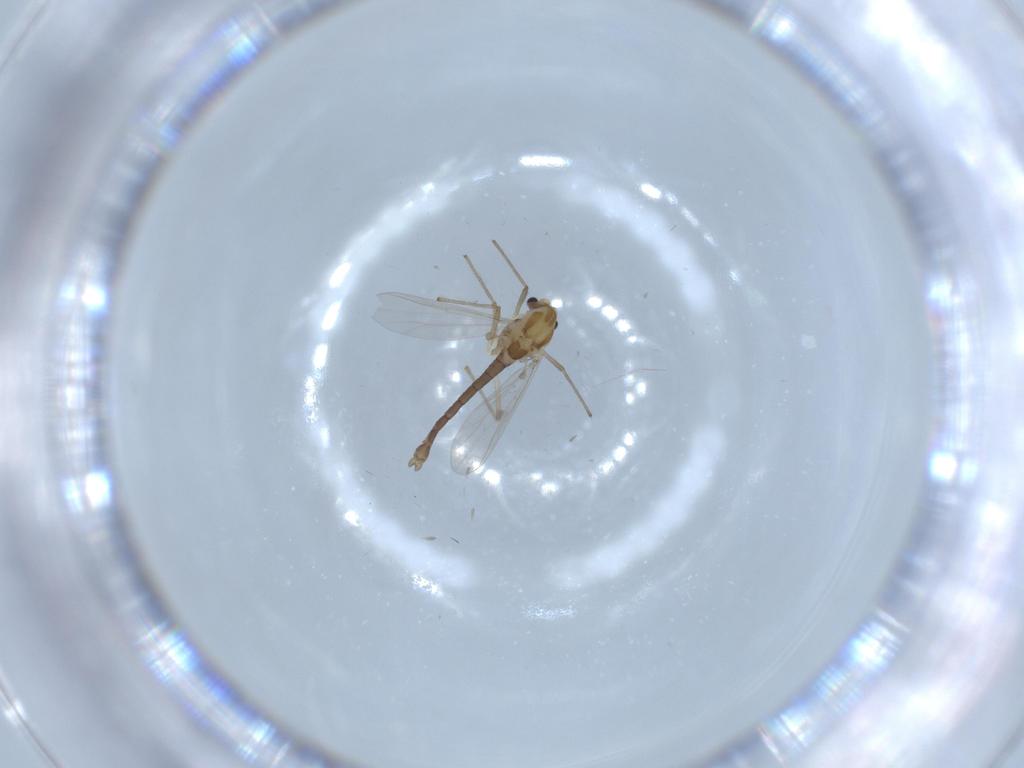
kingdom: Animalia
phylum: Arthropoda
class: Insecta
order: Diptera
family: Chironomidae
